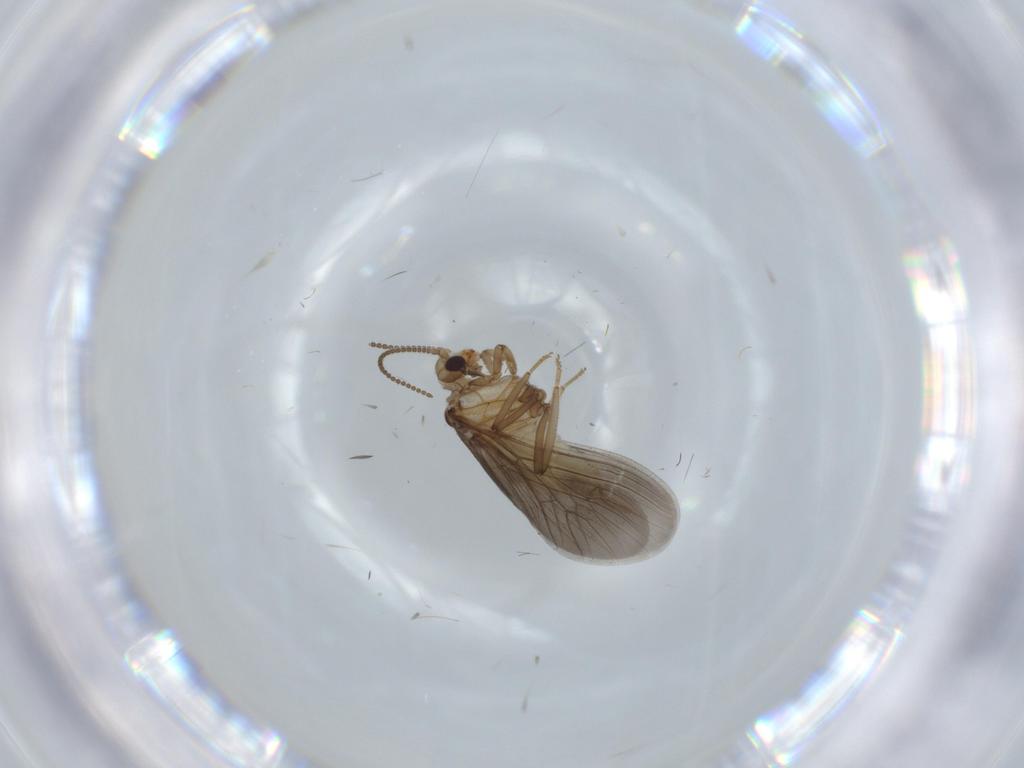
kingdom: Animalia
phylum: Arthropoda
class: Insecta
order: Neuroptera
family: Coniopterygidae
